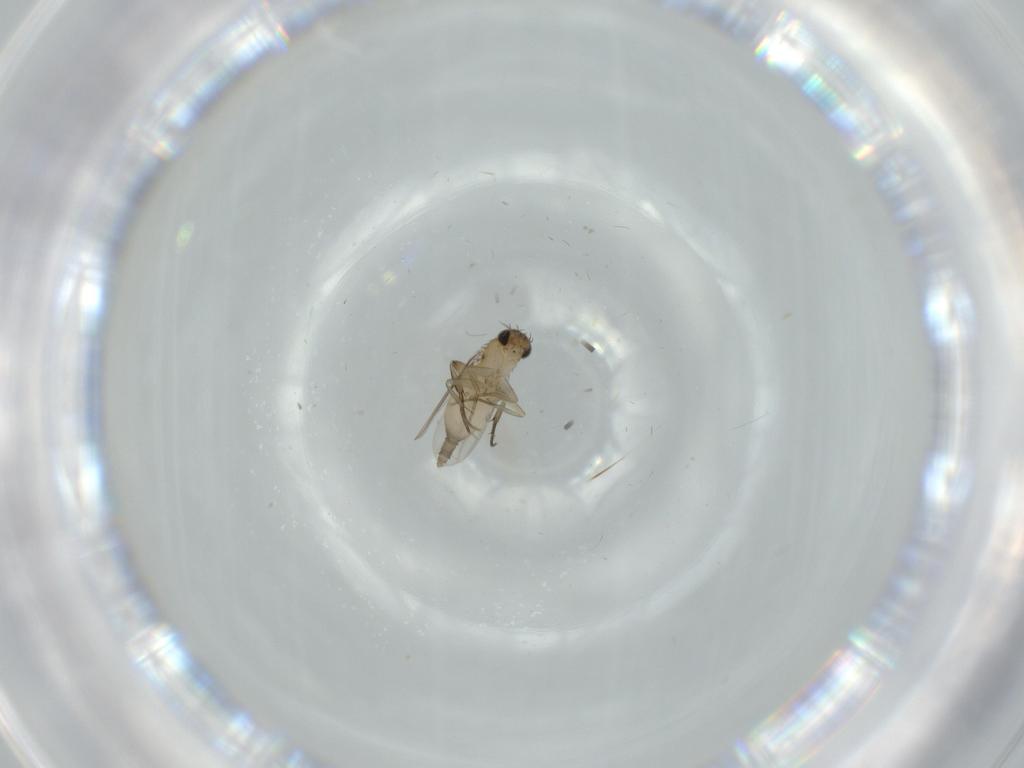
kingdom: Animalia
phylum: Arthropoda
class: Insecta
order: Diptera
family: Phoridae
